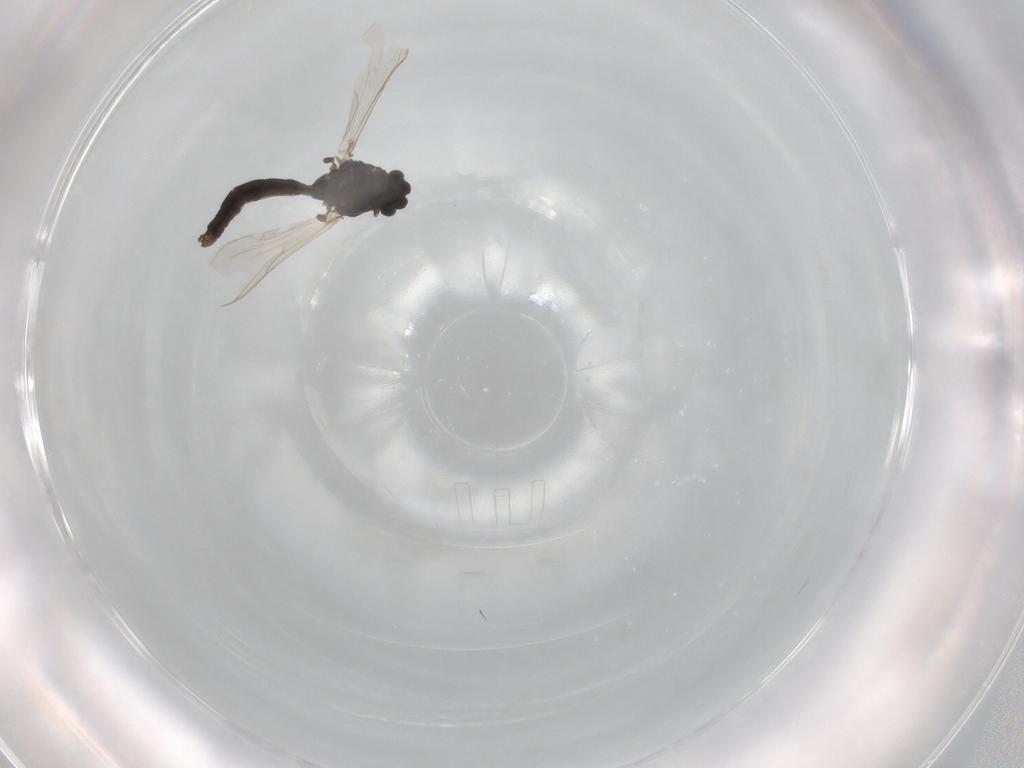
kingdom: Animalia
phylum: Arthropoda
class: Insecta
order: Diptera
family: Chironomidae
